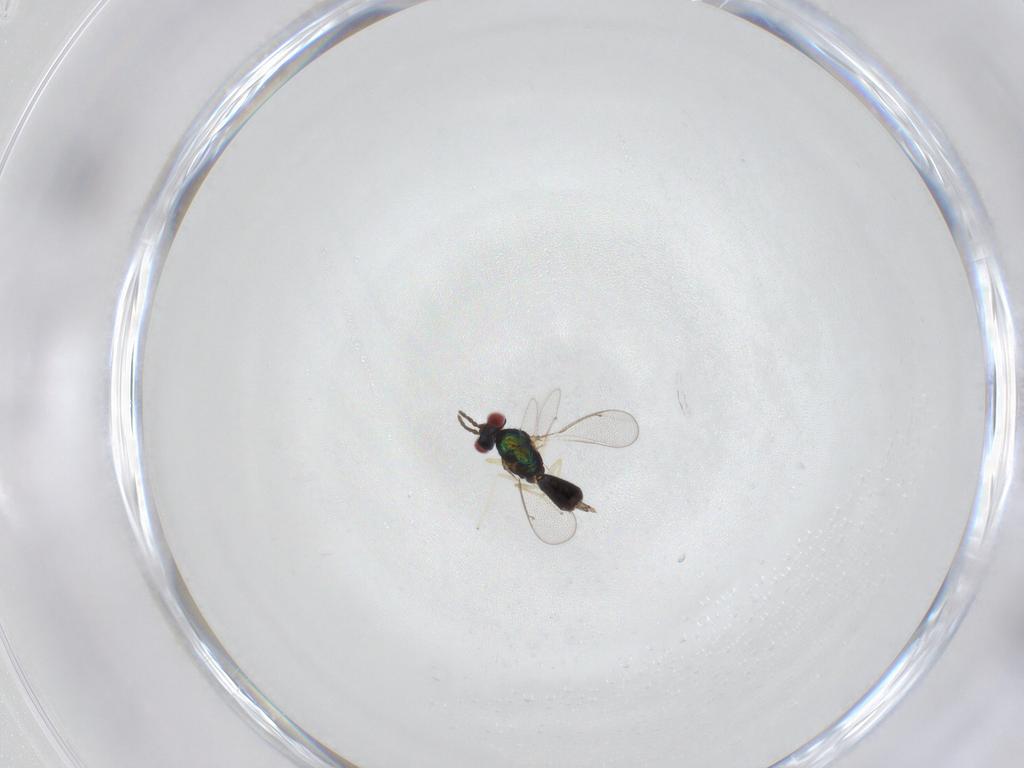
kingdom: Animalia
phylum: Arthropoda
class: Insecta
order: Hymenoptera
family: Eulophidae
